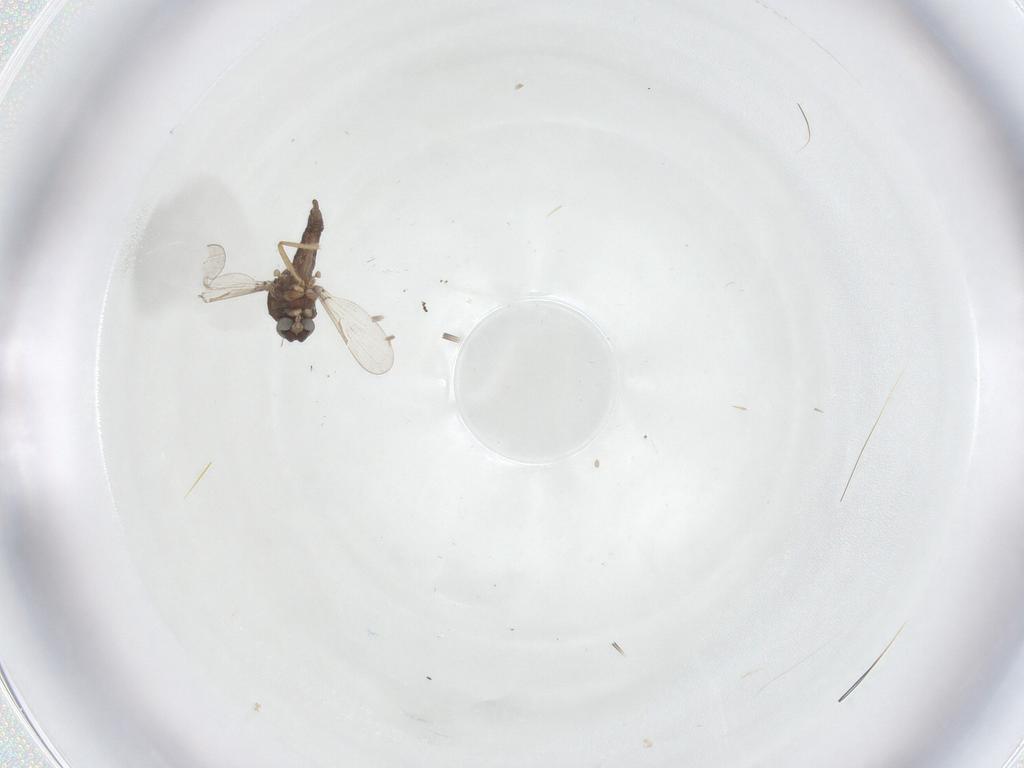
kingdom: Animalia
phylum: Arthropoda
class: Insecta
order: Diptera
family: Ceratopogonidae
